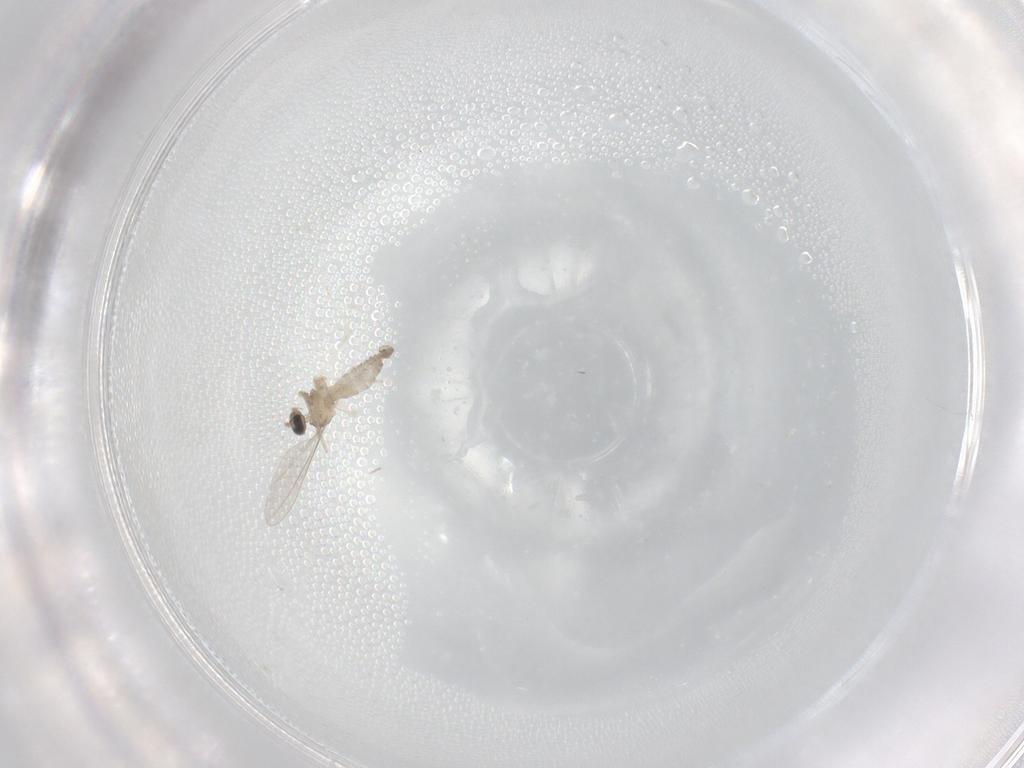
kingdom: Animalia
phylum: Arthropoda
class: Insecta
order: Diptera
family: Cecidomyiidae
